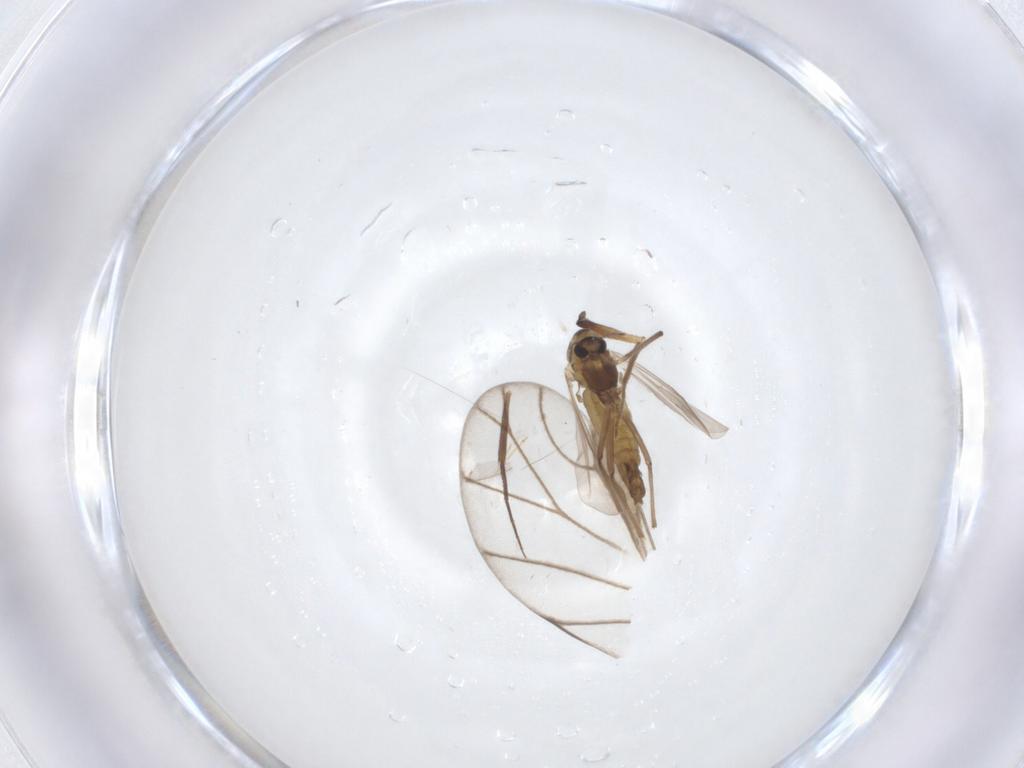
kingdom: Animalia
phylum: Arthropoda
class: Insecta
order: Diptera
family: Chironomidae
